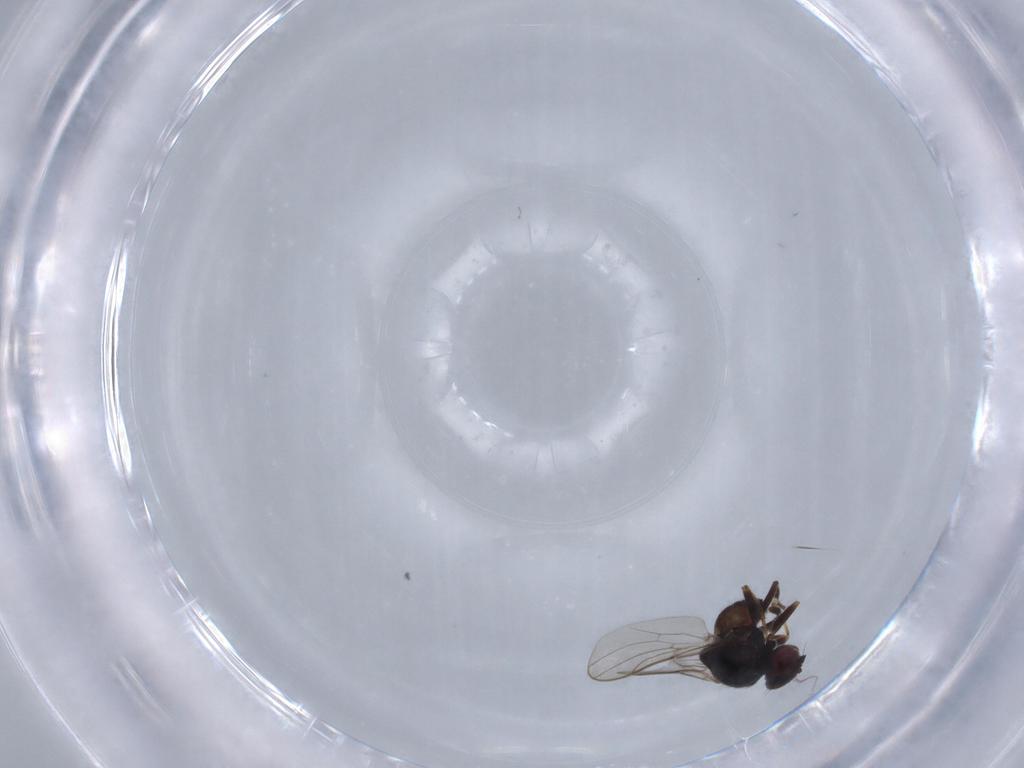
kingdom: Animalia
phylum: Arthropoda
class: Insecta
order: Diptera
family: Chloropidae
